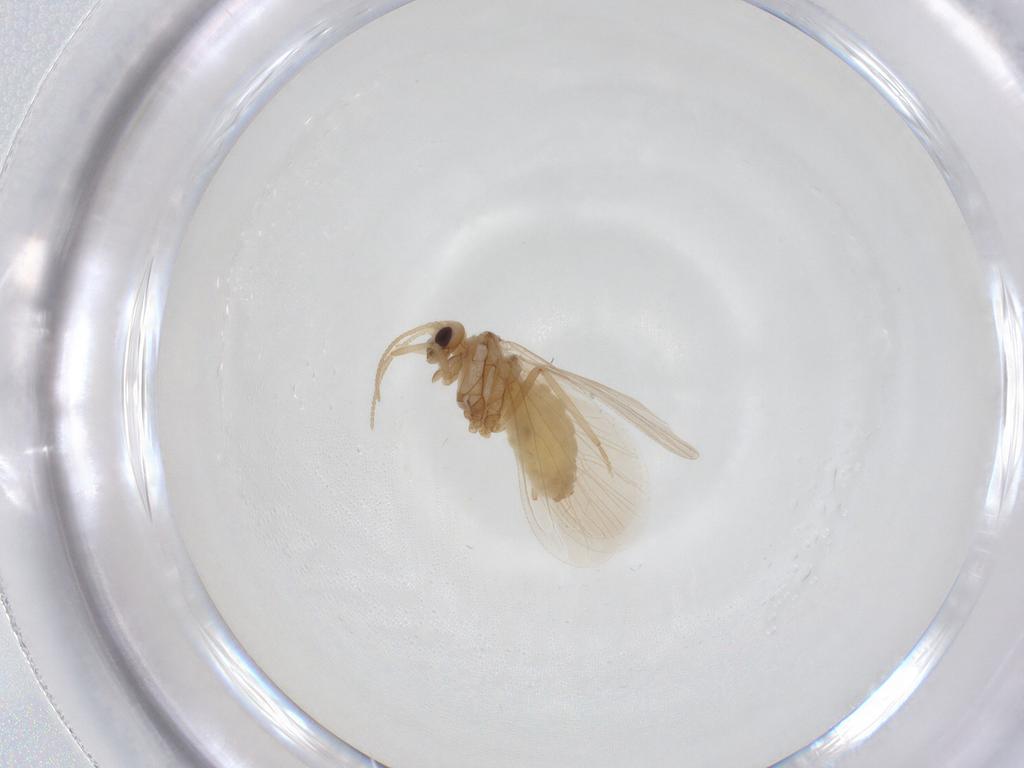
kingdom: Animalia
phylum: Arthropoda
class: Insecta
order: Neuroptera
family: Coniopterygidae
